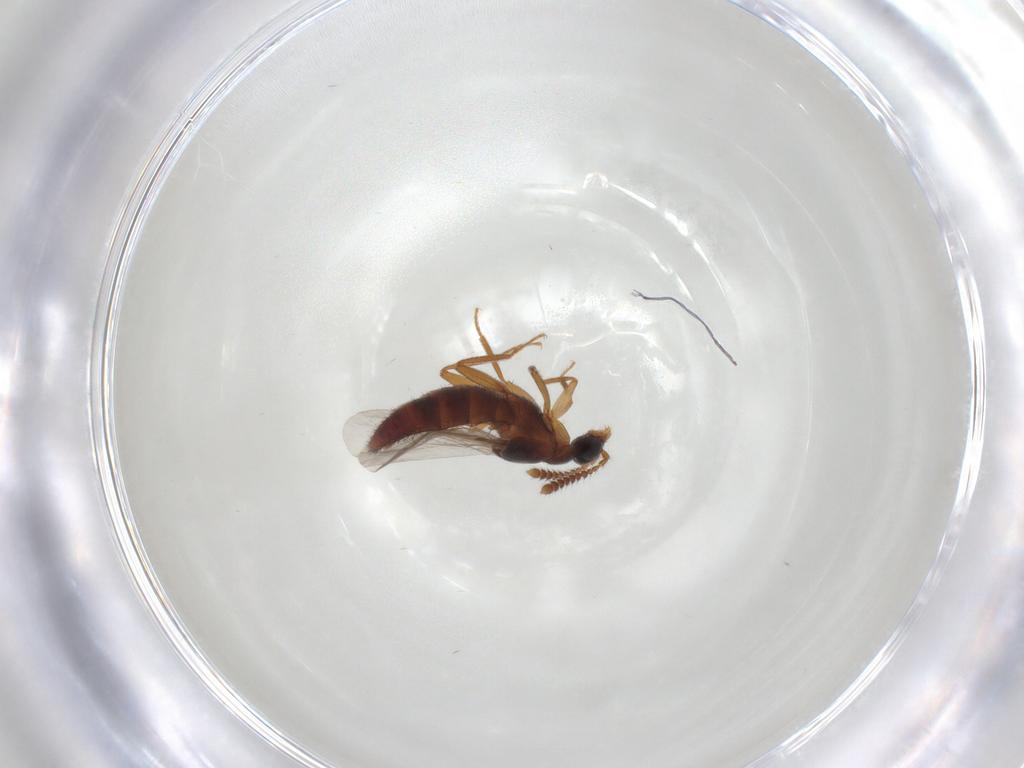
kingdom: Animalia
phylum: Arthropoda
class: Insecta
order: Coleoptera
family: Staphylinidae
